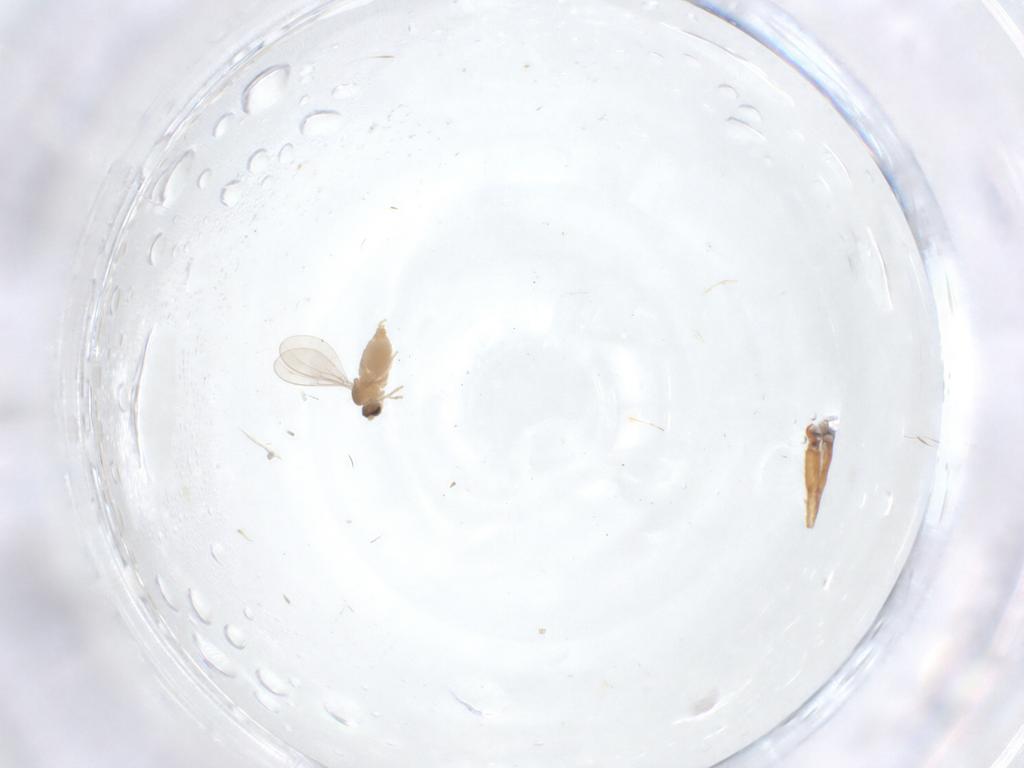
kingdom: Animalia
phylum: Arthropoda
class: Insecta
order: Diptera
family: Cecidomyiidae
